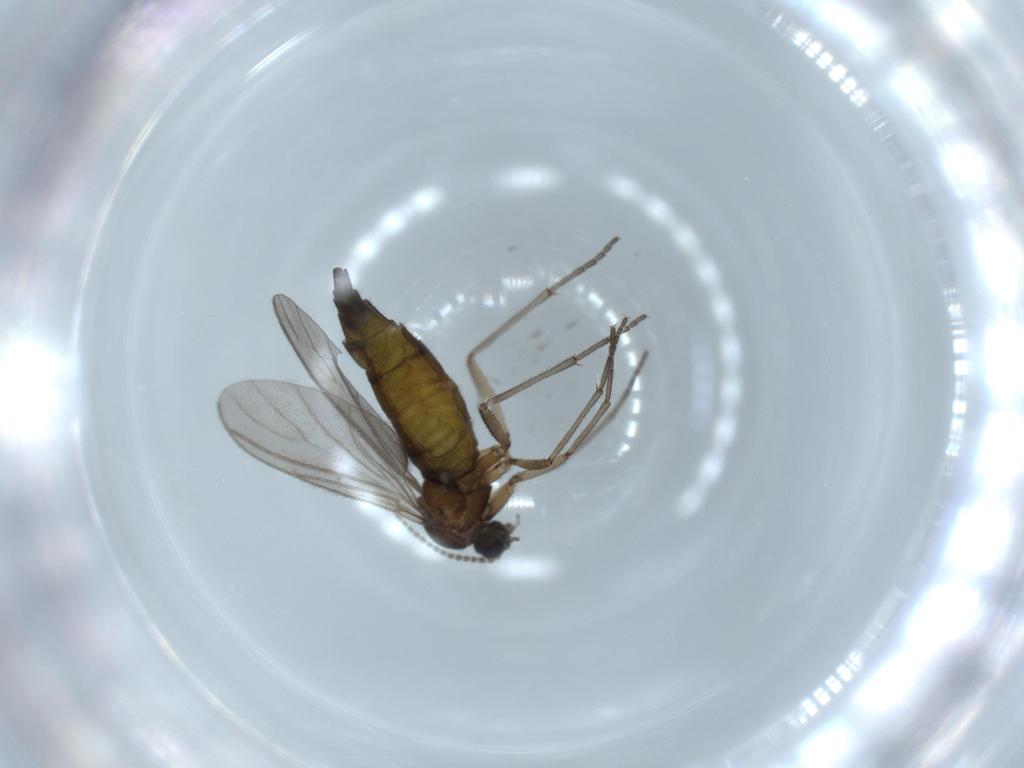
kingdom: Animalia
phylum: Arthropoda
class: Insecta
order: Diptera
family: Sciaridae
